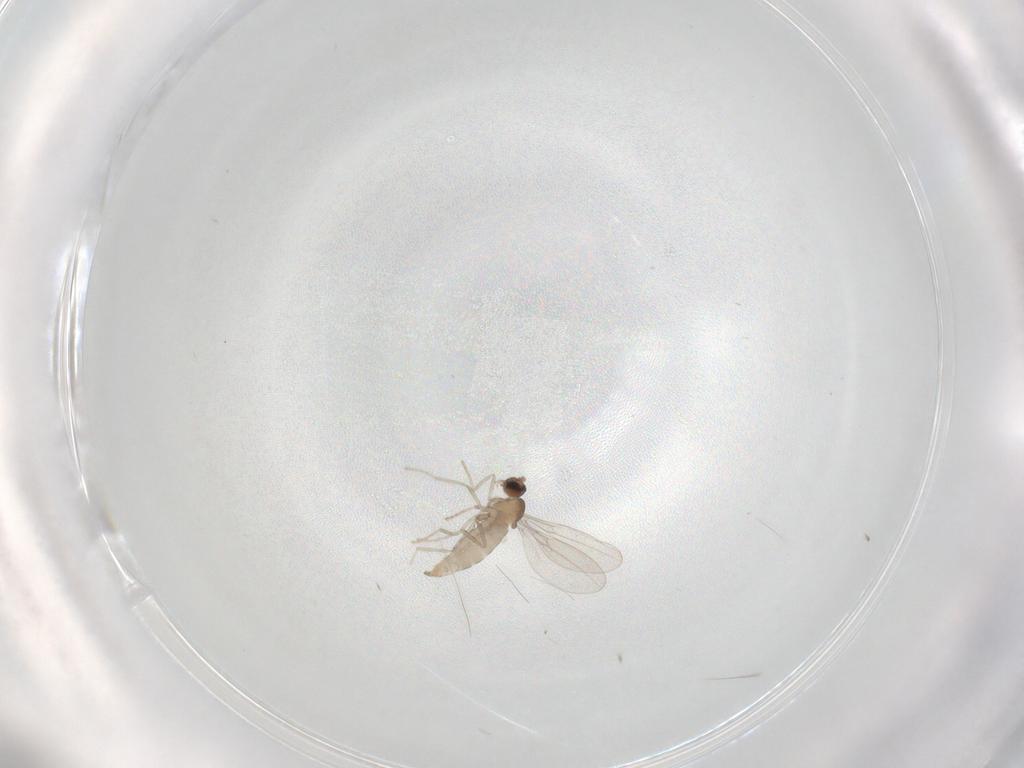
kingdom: Animalia
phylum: Arthropoda
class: Insecta
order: Diptera
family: Phoridae
